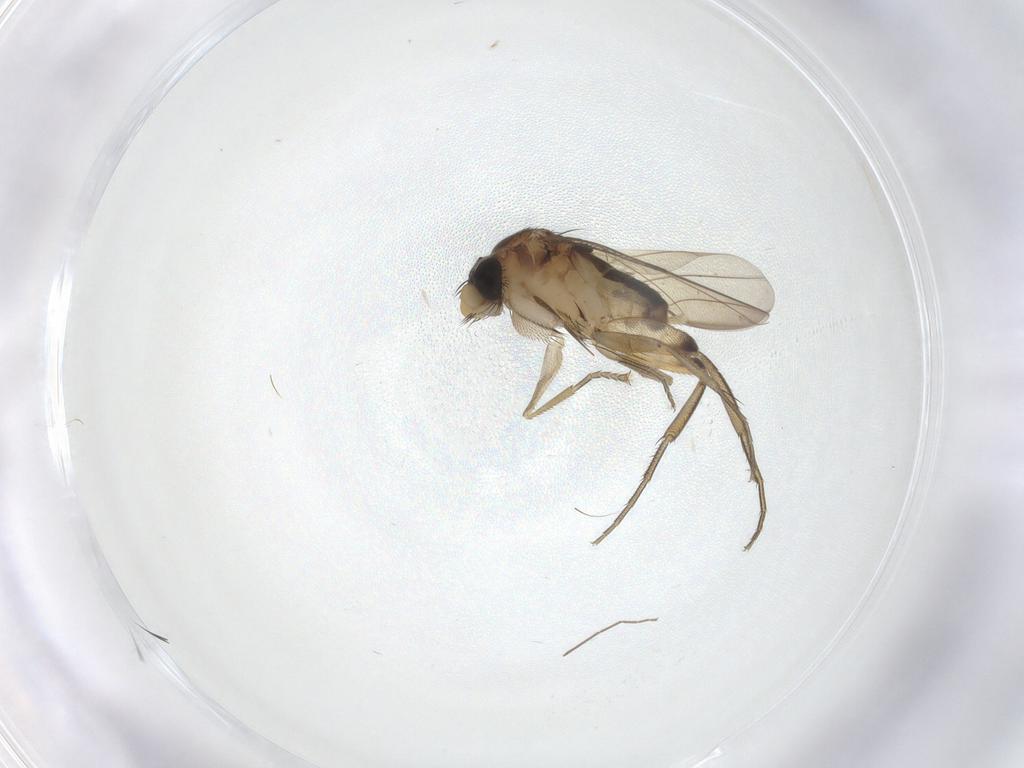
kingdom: Animalia
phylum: Arthropoda
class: Insecta
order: Diptera
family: Phoridae
